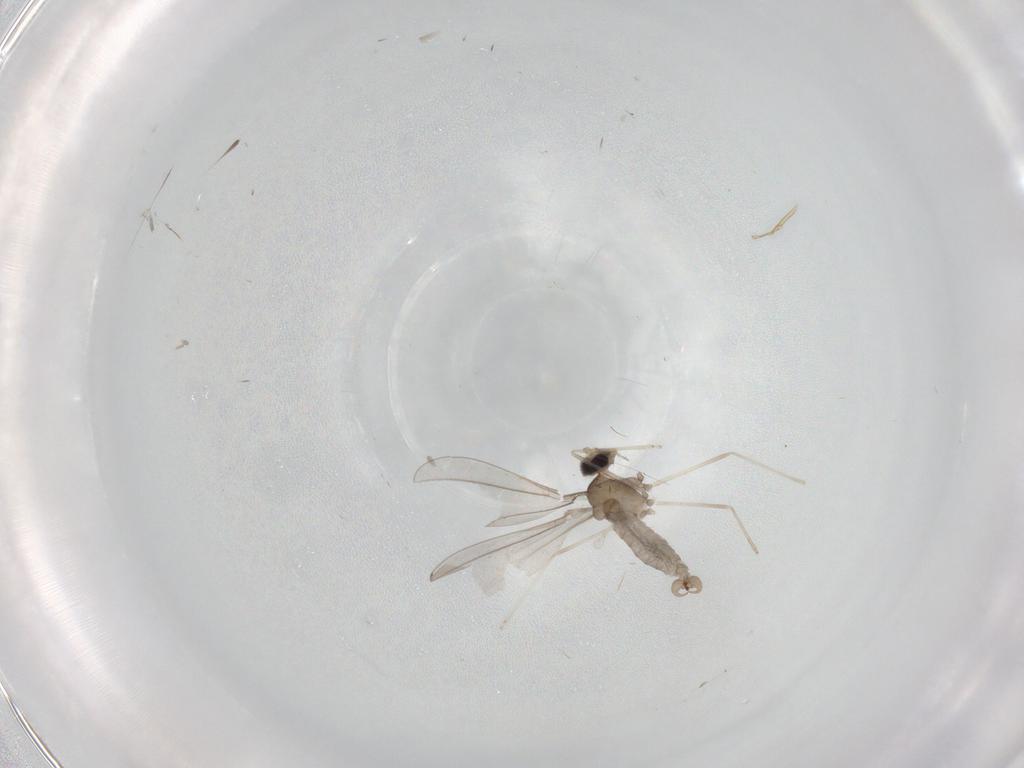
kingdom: Animalia
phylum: Arthropoda
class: Insecta
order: Diptera
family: Cecidomyiidae
